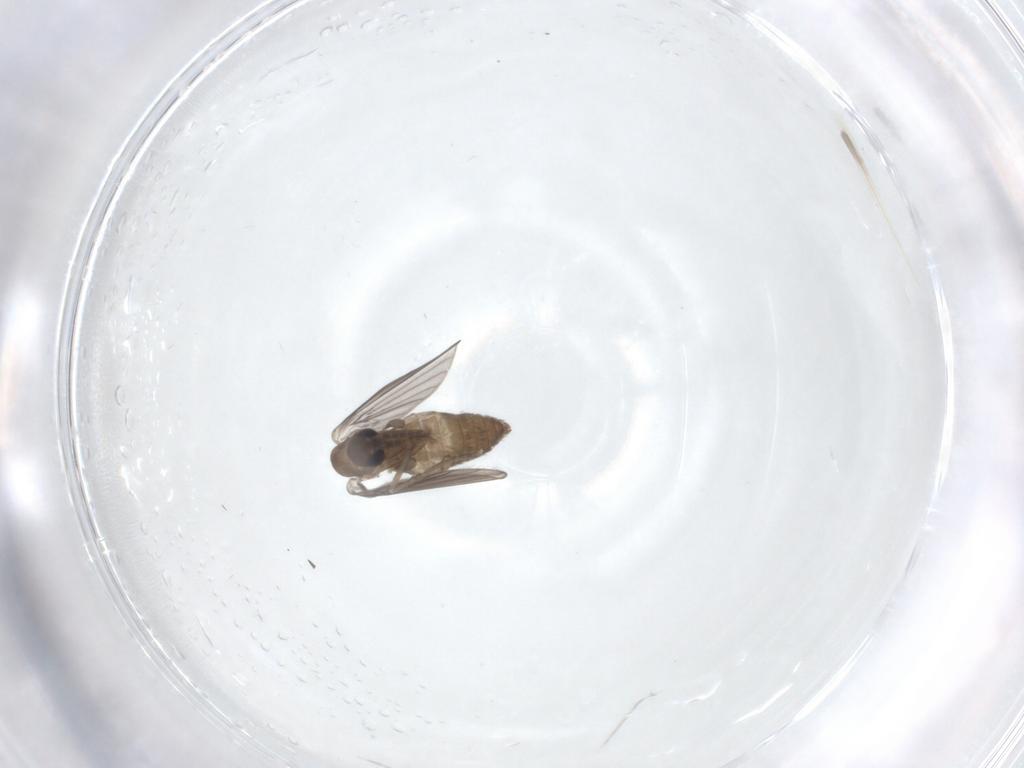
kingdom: Animalia
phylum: Arthropoda
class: Insecta
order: Diptera
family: Psychodidae
